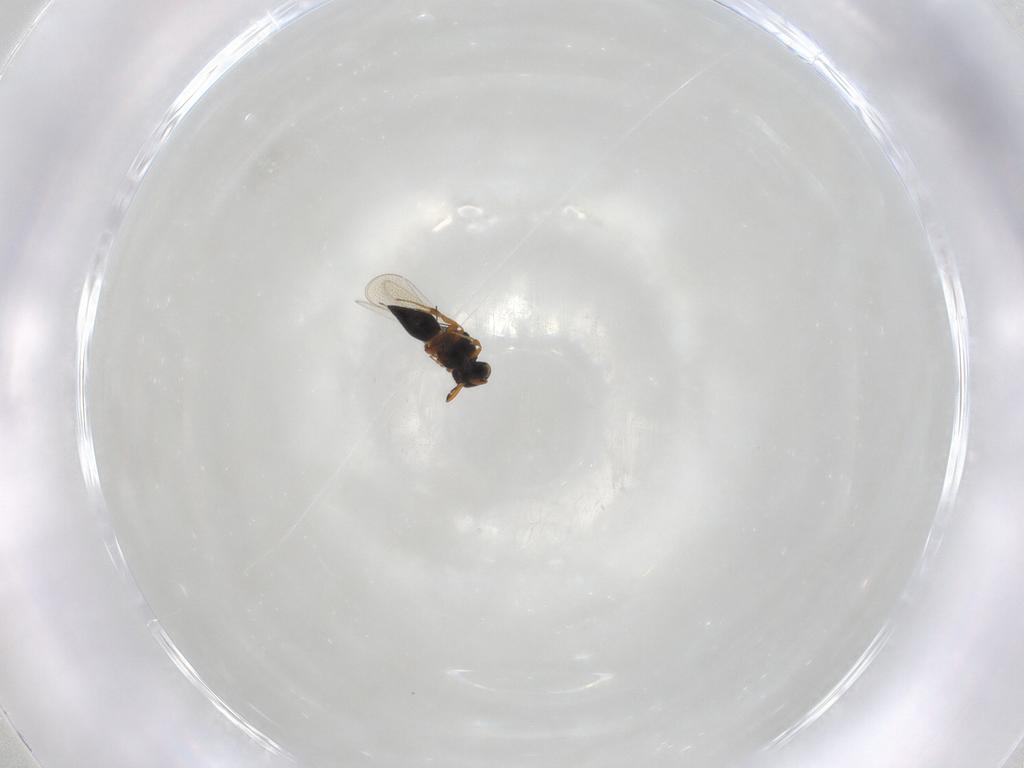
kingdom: Animalia
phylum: Arthropoda
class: Insecta
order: Hymenoptera
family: Platygastridae
